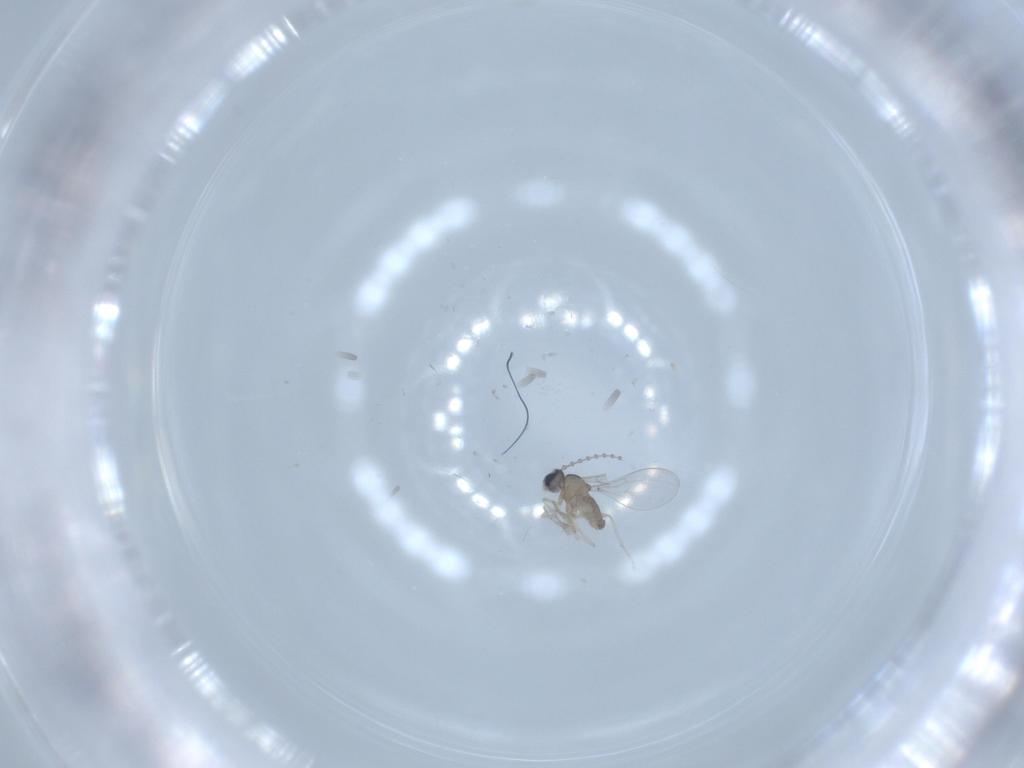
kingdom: Animalia
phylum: Arthropoda
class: Insecta
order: Diptera
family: Cecidomyiidae
